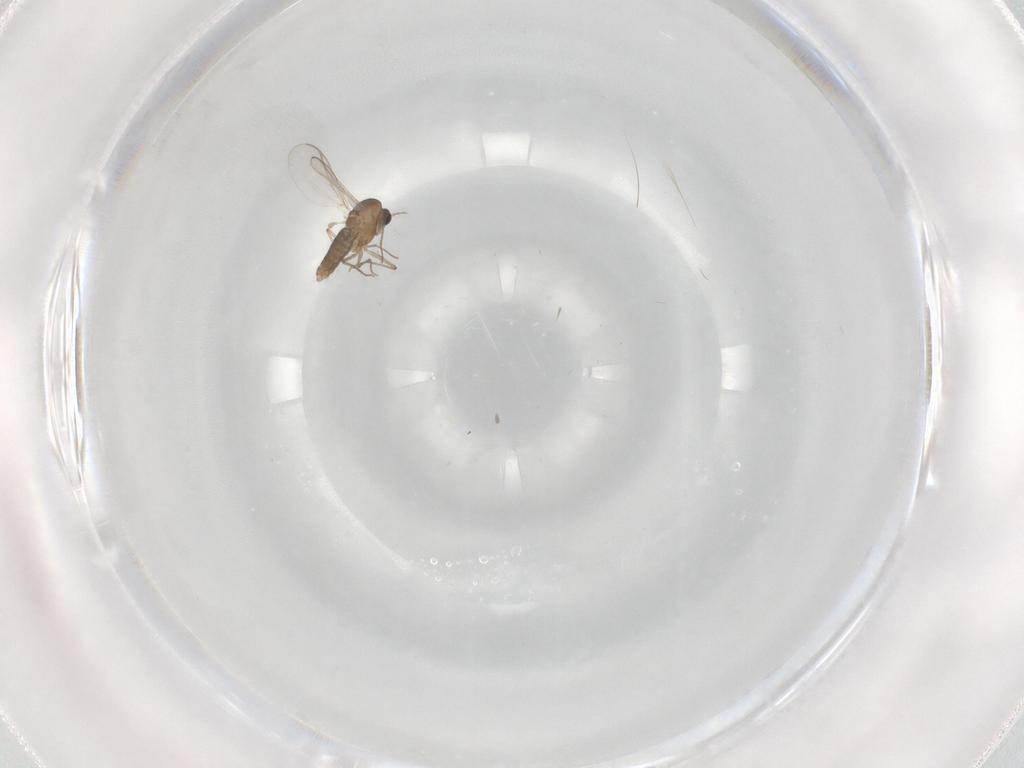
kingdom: Animalia
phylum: Arthropoda
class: Insecta
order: Diptera
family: Chironomidae
